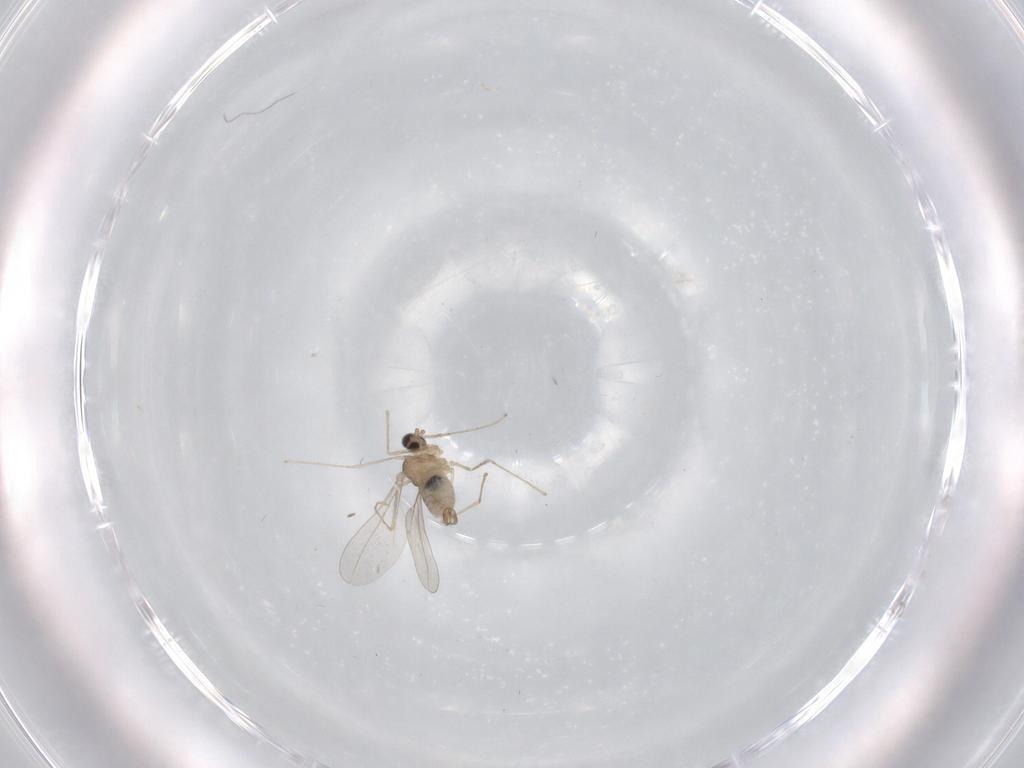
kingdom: Animalia
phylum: Arthropoda
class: Insecta
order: Diptera
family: Cecidomyiidae
